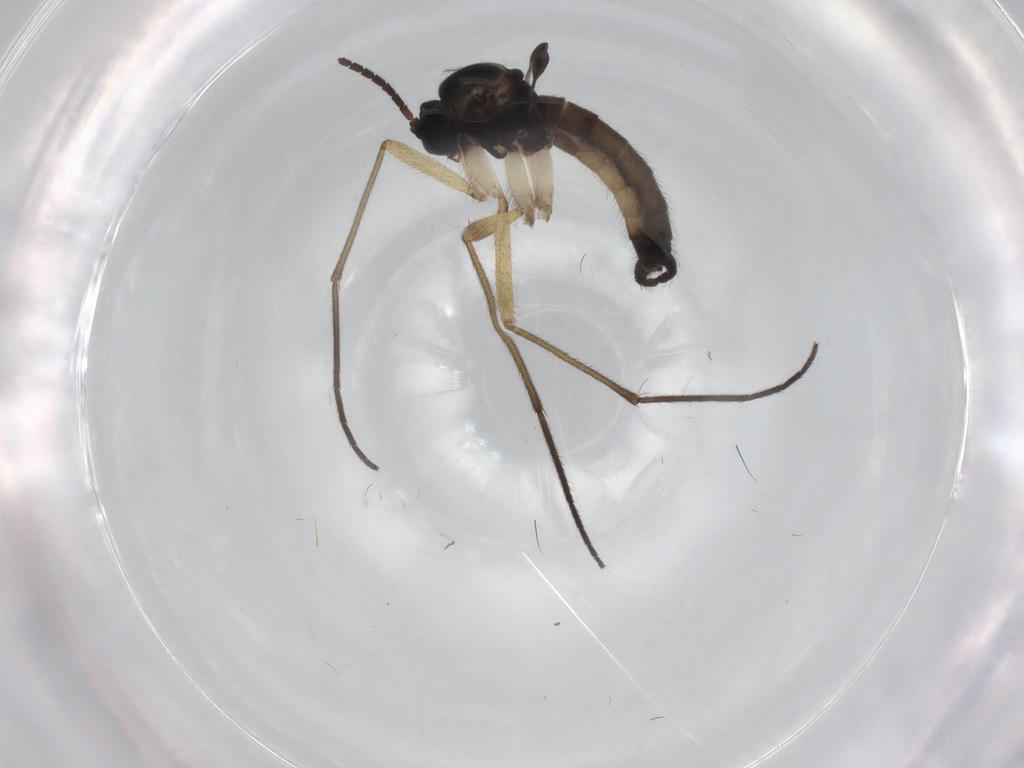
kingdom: Animalia
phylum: Arthropoda
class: Insecta
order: Diptera
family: Sciaridae
